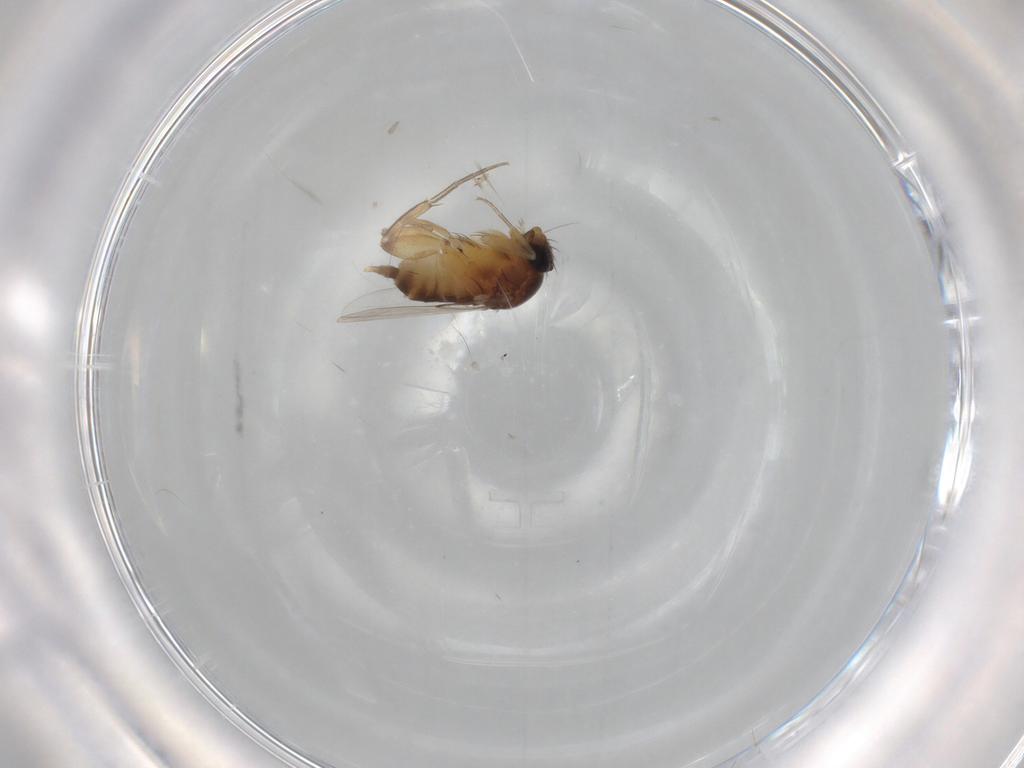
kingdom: Animalia
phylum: Arthropoda
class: Insecta
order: Diptera
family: Phoridae
